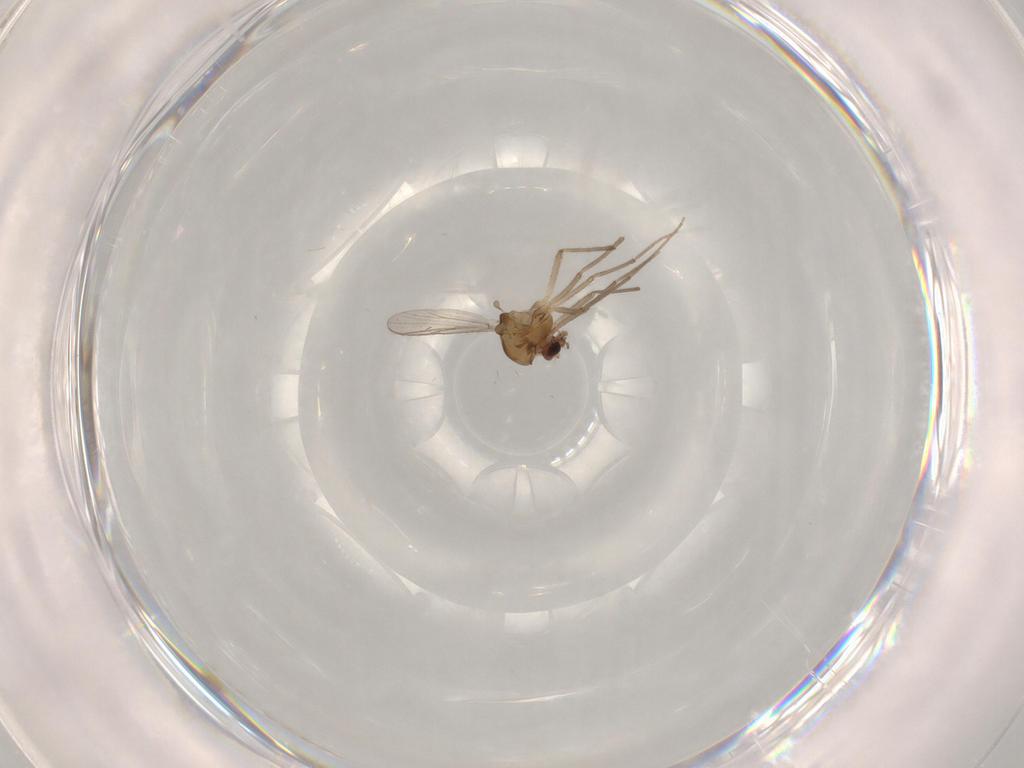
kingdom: Animalia
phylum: Arthropoda
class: Insecta
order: Diptera
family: Chironomidae
